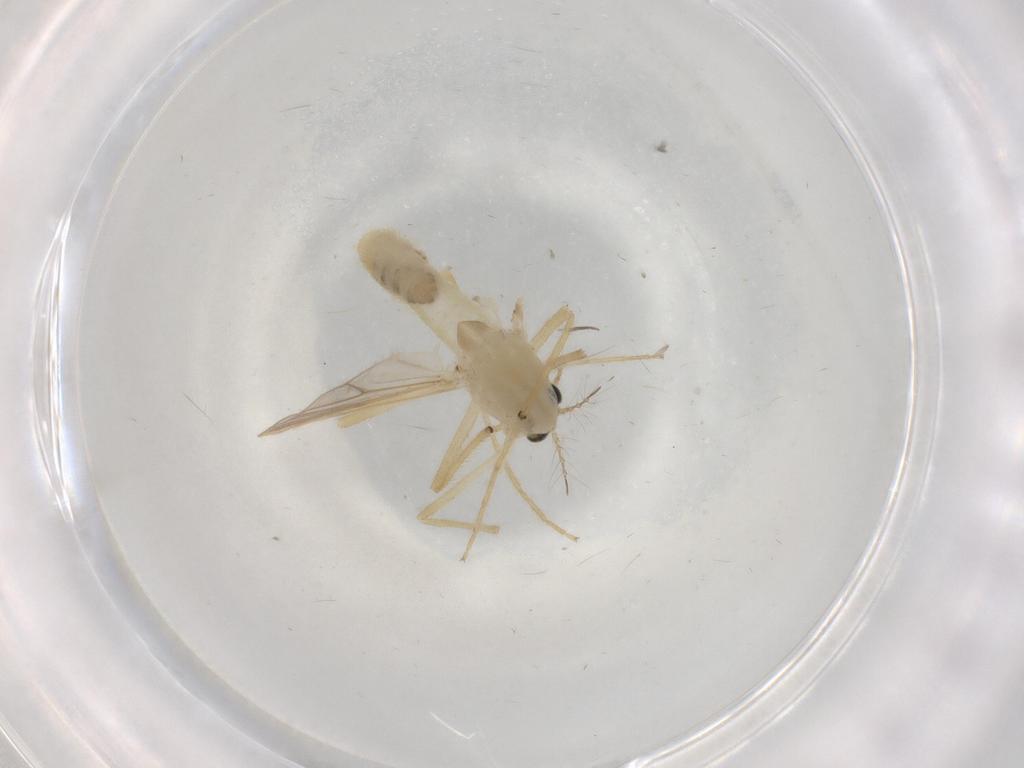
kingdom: Animalia
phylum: Arthropoda
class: Insecta
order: Diptera
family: Chironomidae
